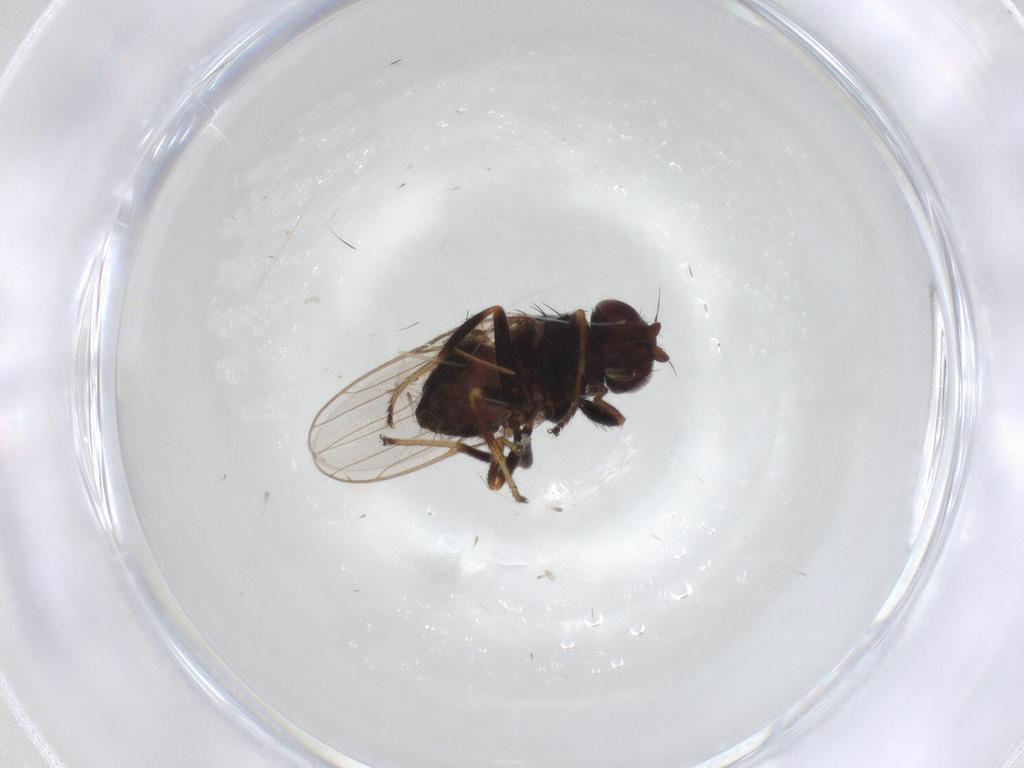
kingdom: Animalia
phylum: Arthropoda
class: Insecta
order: Diptera
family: Chloropidae
